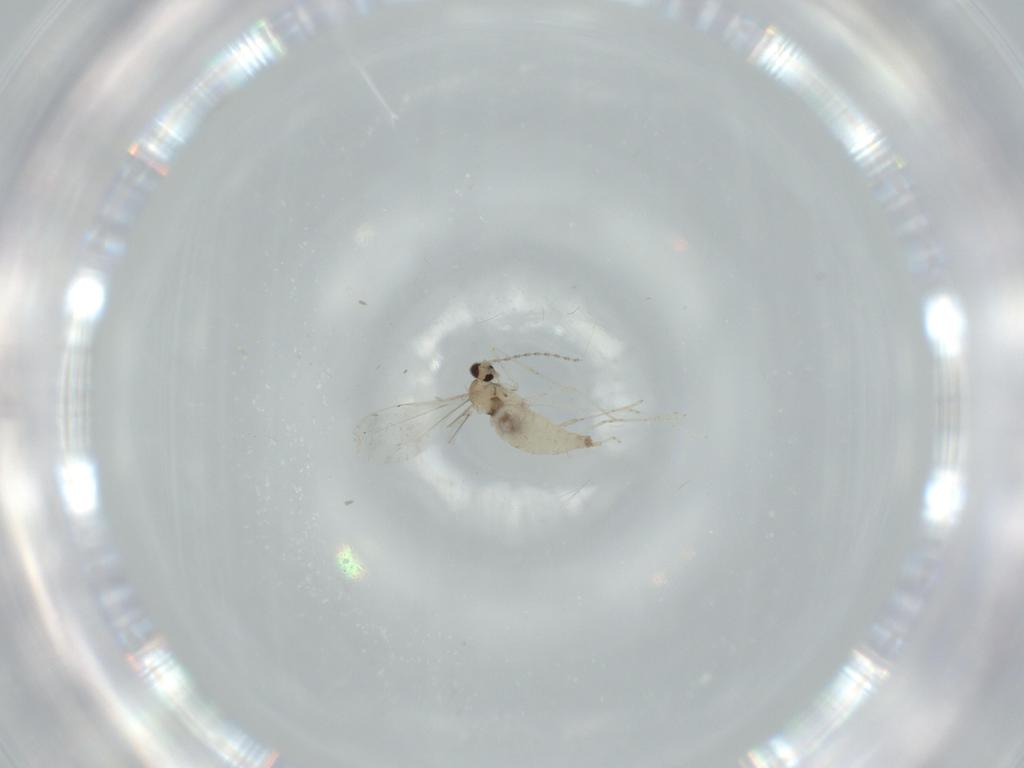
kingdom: Animalia
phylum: Arthropoda
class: Insecta
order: Diptera
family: Cecidomyiidae
